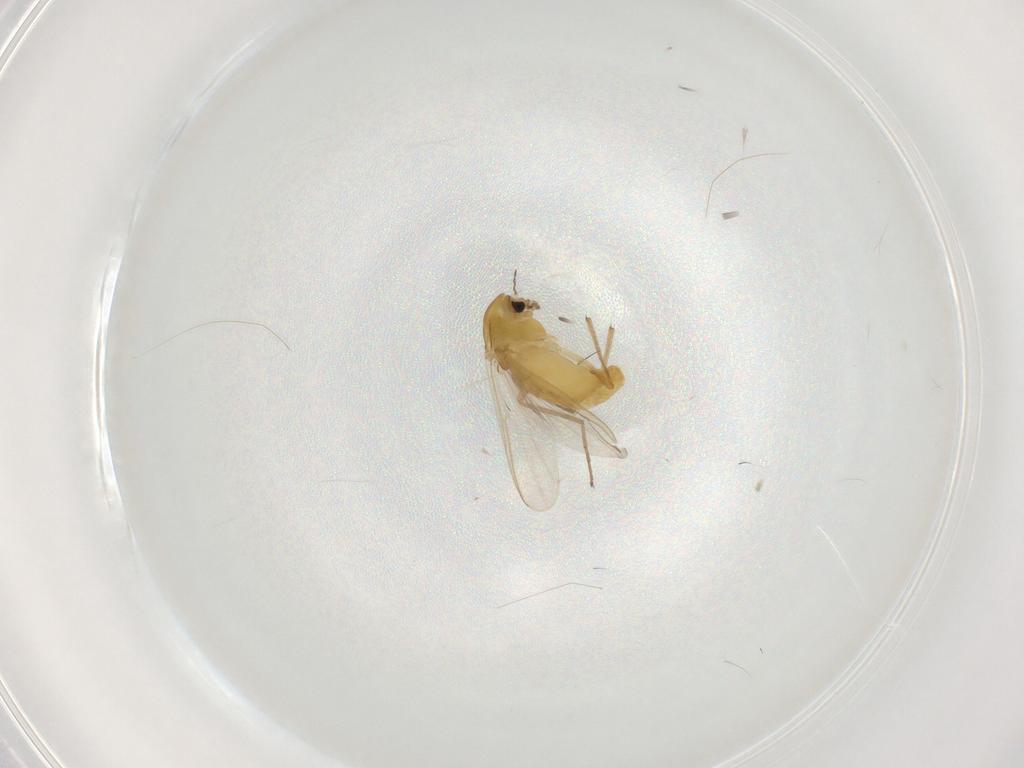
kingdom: Animalia
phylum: Arthropoda
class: Insecta
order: Diptera
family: Chironomidae
